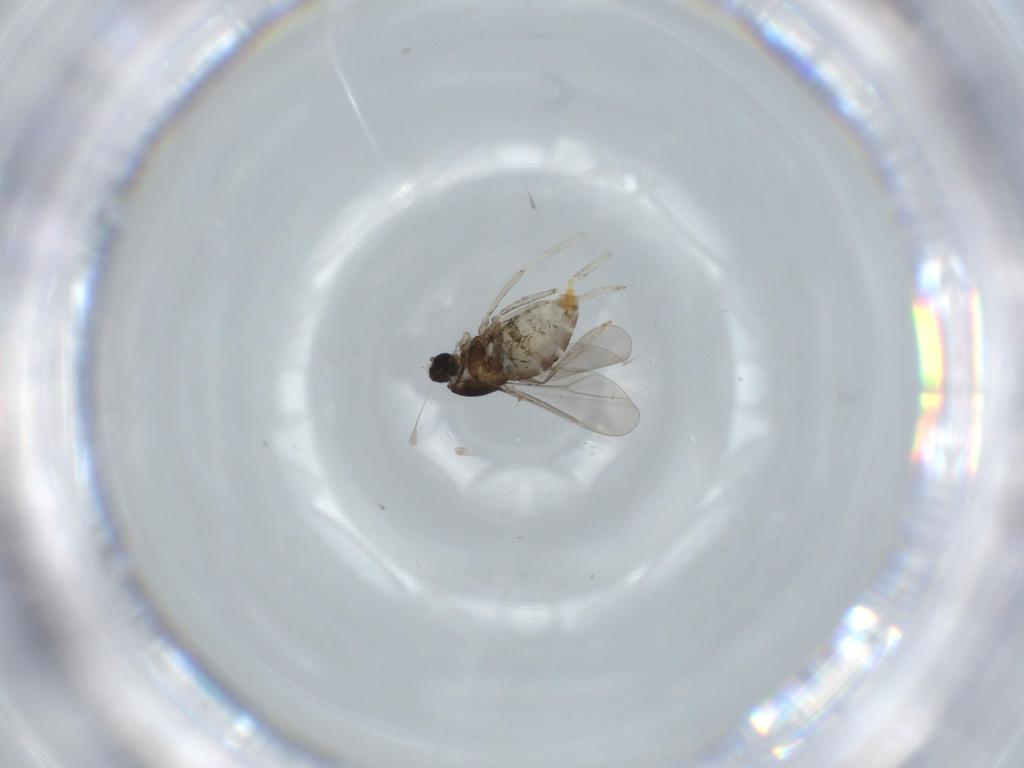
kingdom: Animalia
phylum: Arthropoda
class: Insecta
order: Diptera
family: Cecidomyiidae
